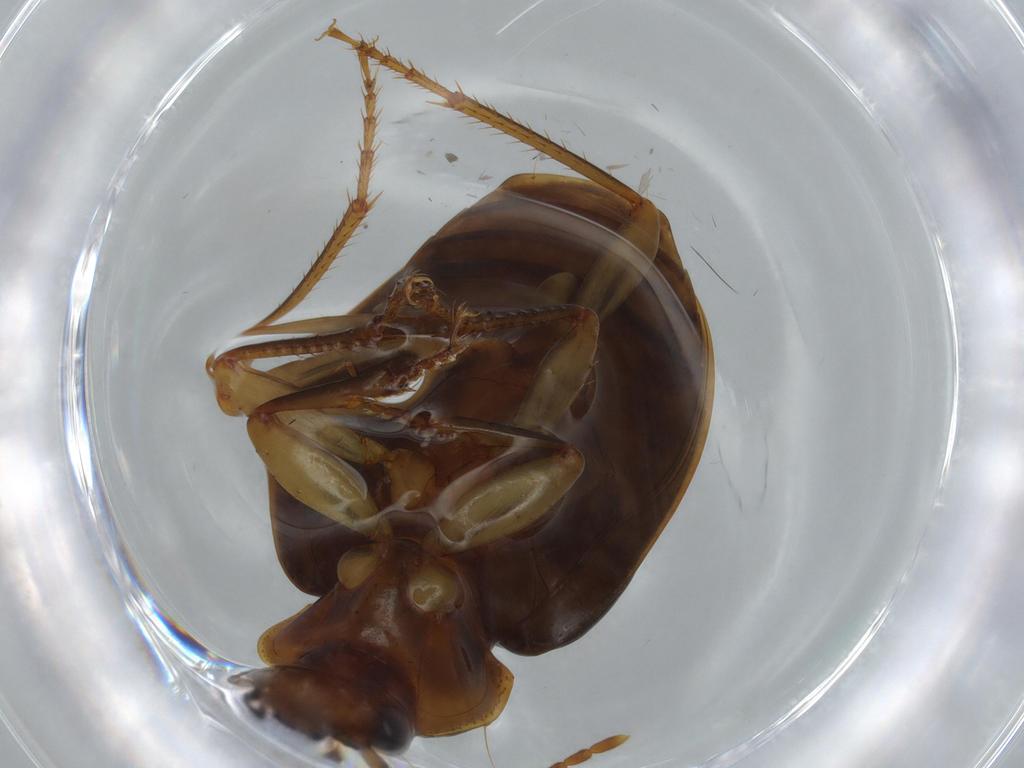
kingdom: Animalia
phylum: Arthropoda
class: Insecta
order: Coleoptera
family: Carabidae
